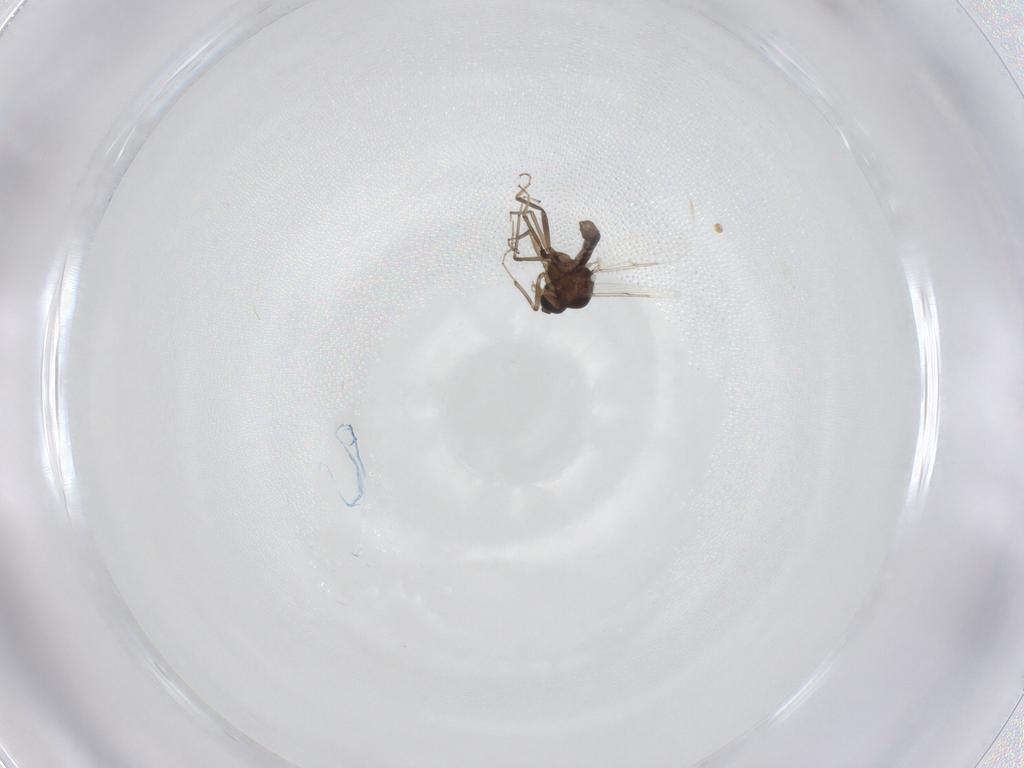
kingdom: Animalia
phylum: Arthropoda
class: Insecta
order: Diptera
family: Ceratopogonidae
